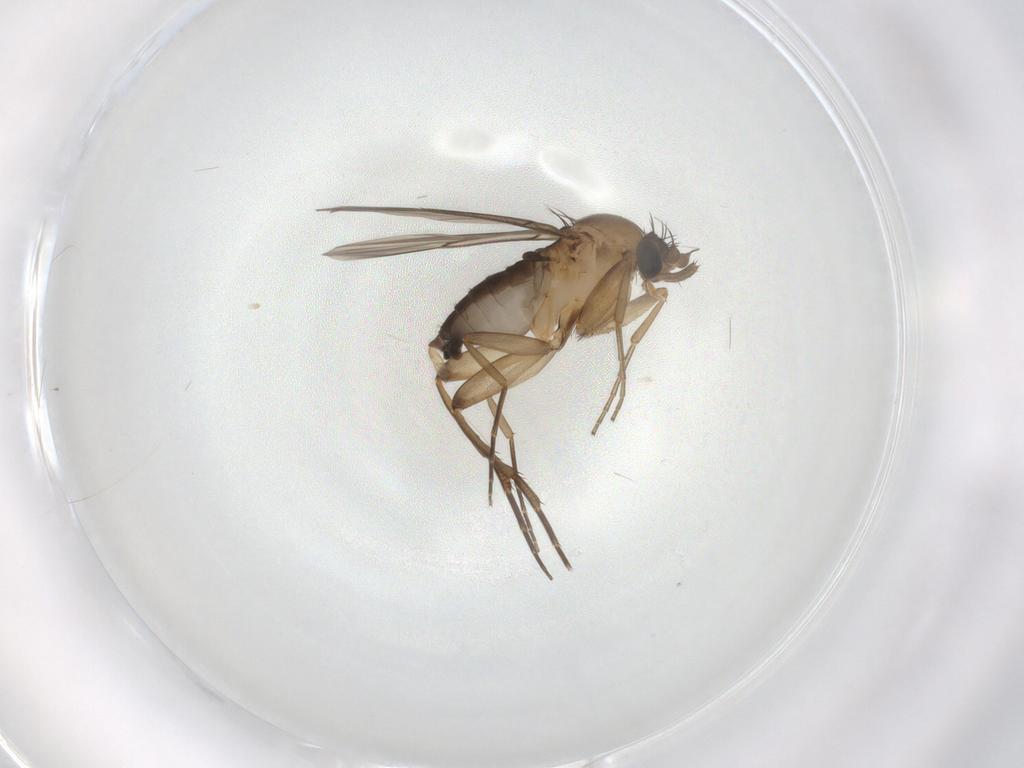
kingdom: Animalia
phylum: Arthropoda
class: Insecta
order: Diptera
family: Phoridae
